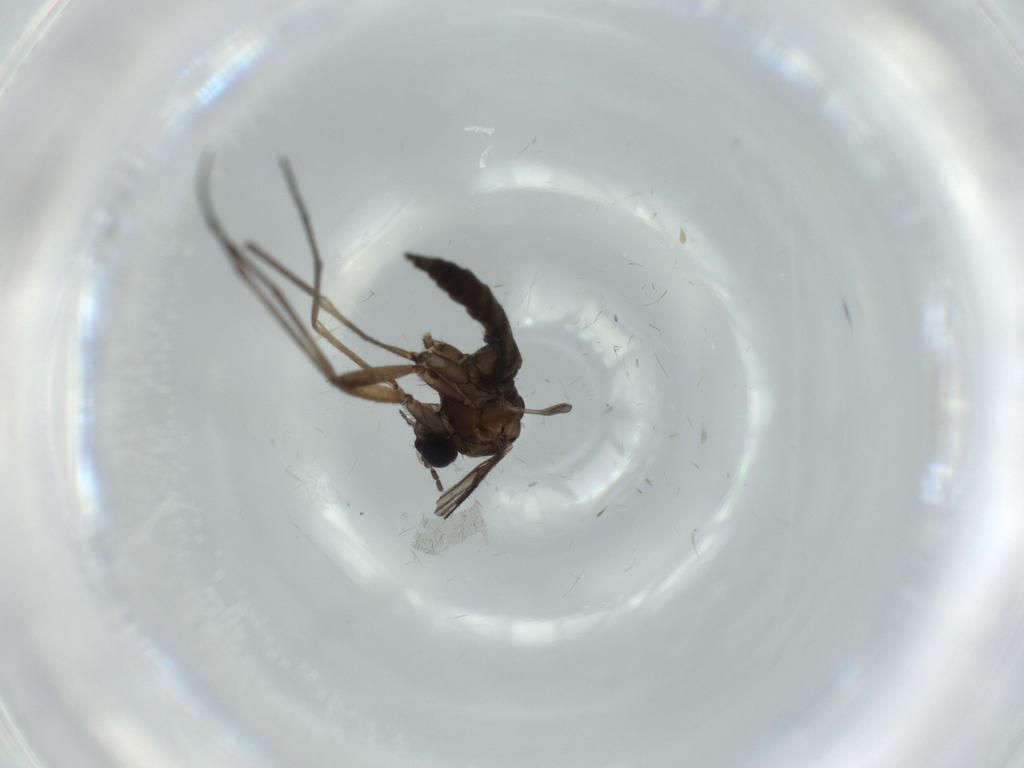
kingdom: Animalia
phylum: Arthropoda
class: Insecta
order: Diptera
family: Sciaridae
